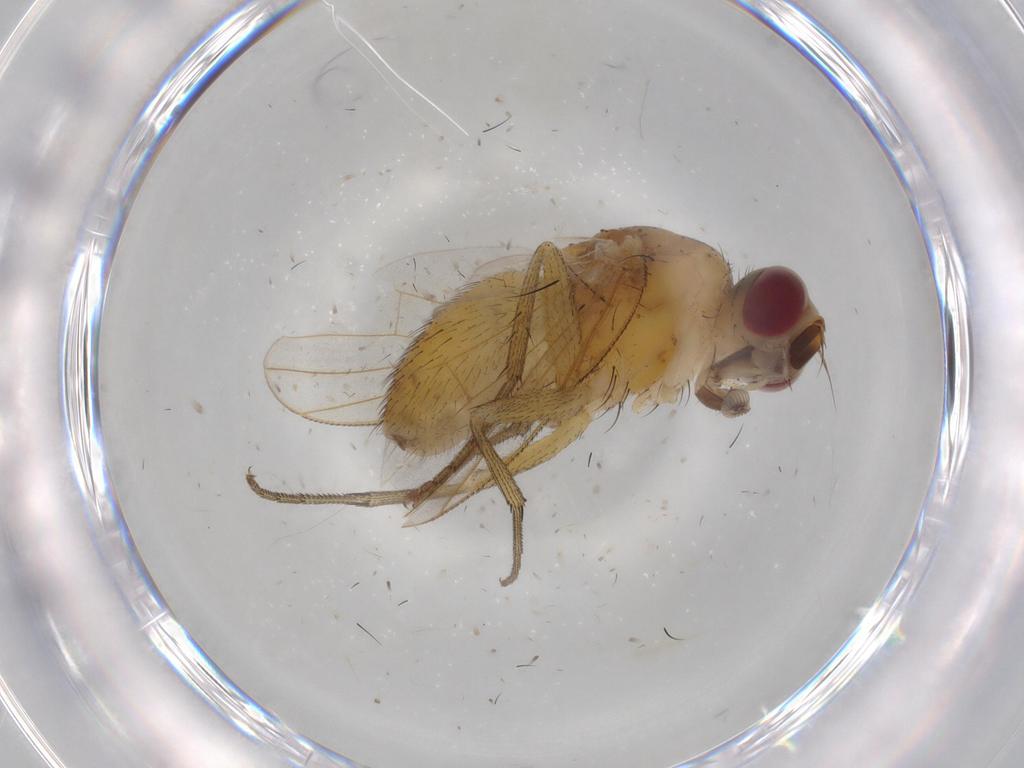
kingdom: Animalia
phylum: Arthropoda
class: Insecta
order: Diptera
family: Muscidae
